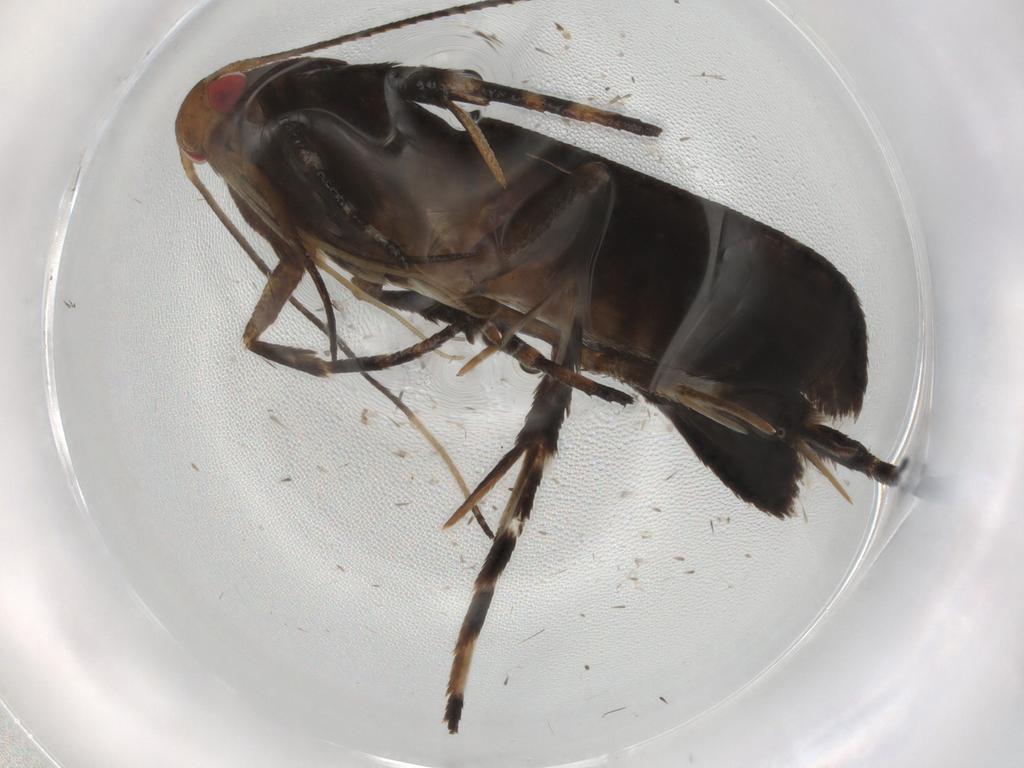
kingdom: Animalia
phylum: Arthropoda
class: Insecta
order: Lepidoptera
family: Gelechiidae
